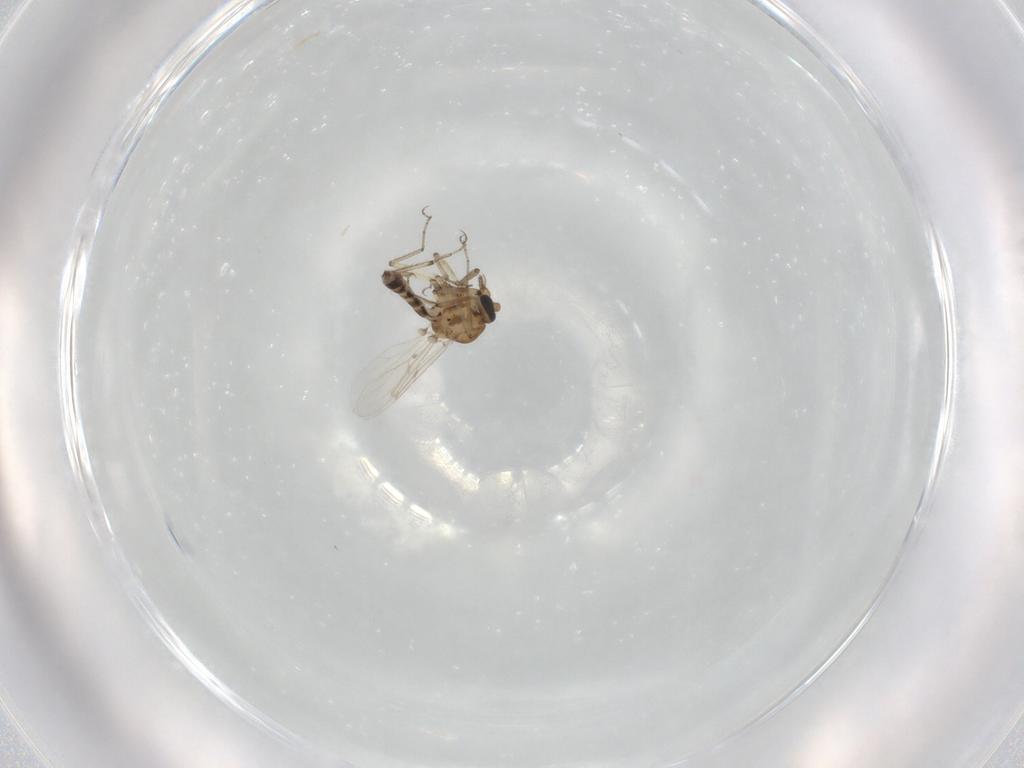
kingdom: Animalia
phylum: Arthropoda
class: Insecta
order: Diptera
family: Ceratopogonidae
